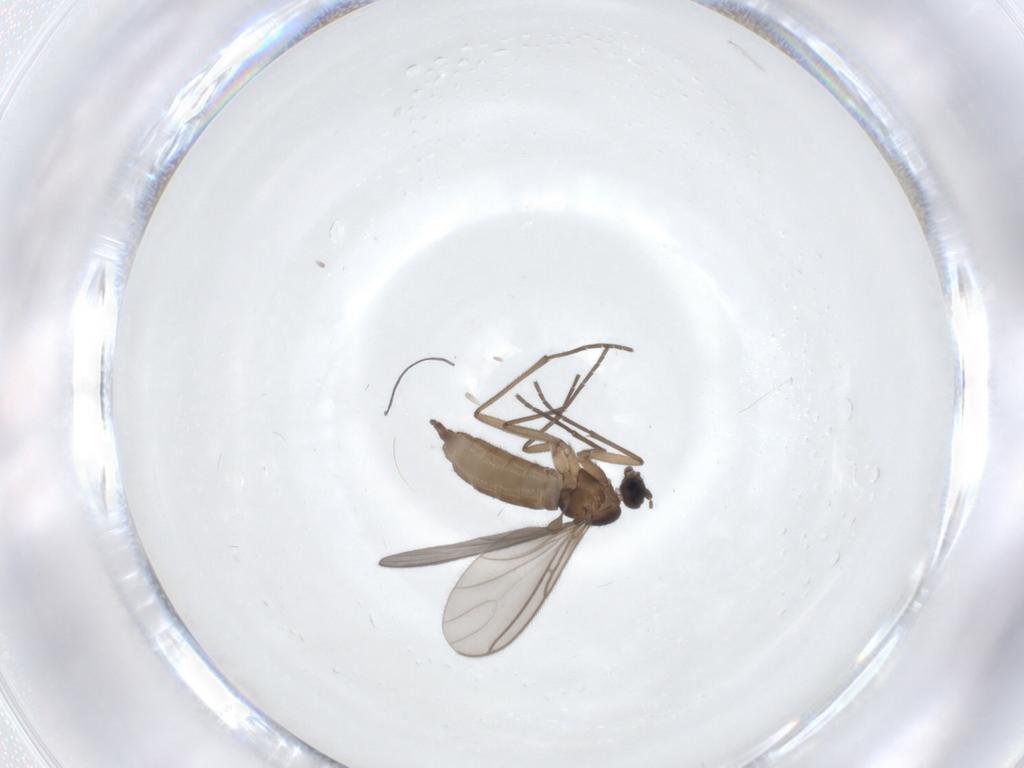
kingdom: Animalia
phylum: Arthropoda
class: Insecta
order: Diptera
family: Sciaridae
